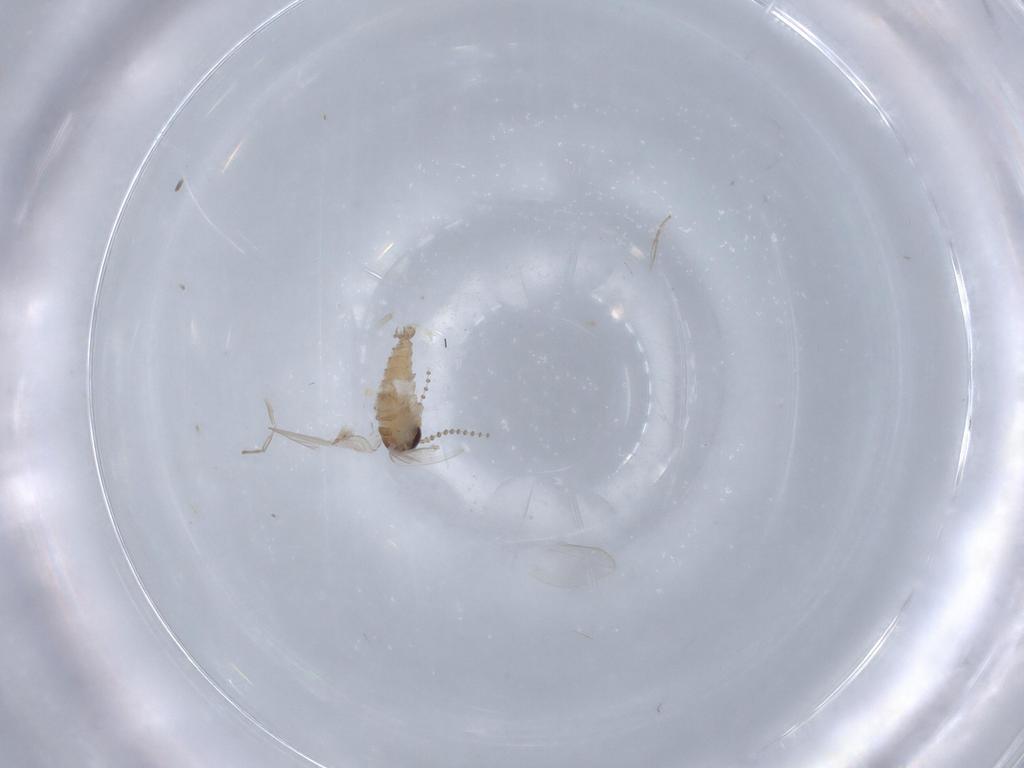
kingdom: Animalia
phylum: Arthropoda
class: Insecta
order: Diptera
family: Psychodidae
